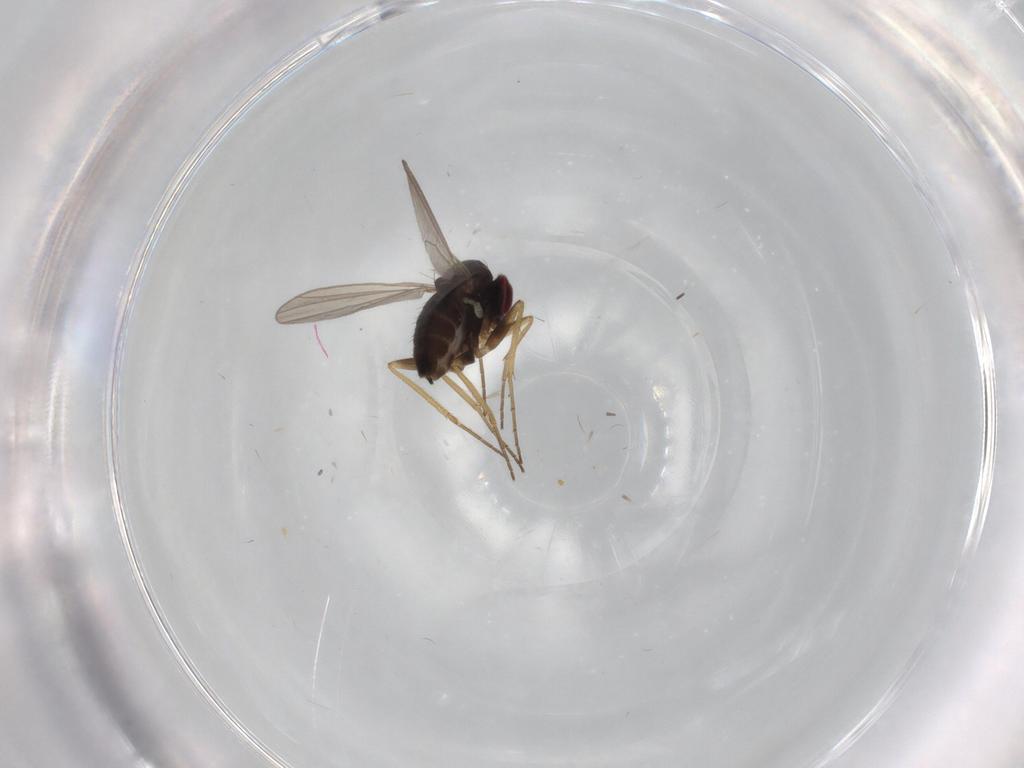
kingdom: Animalia
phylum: Arthropoda
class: Insecta
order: Diptera
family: Dolichopodidae
